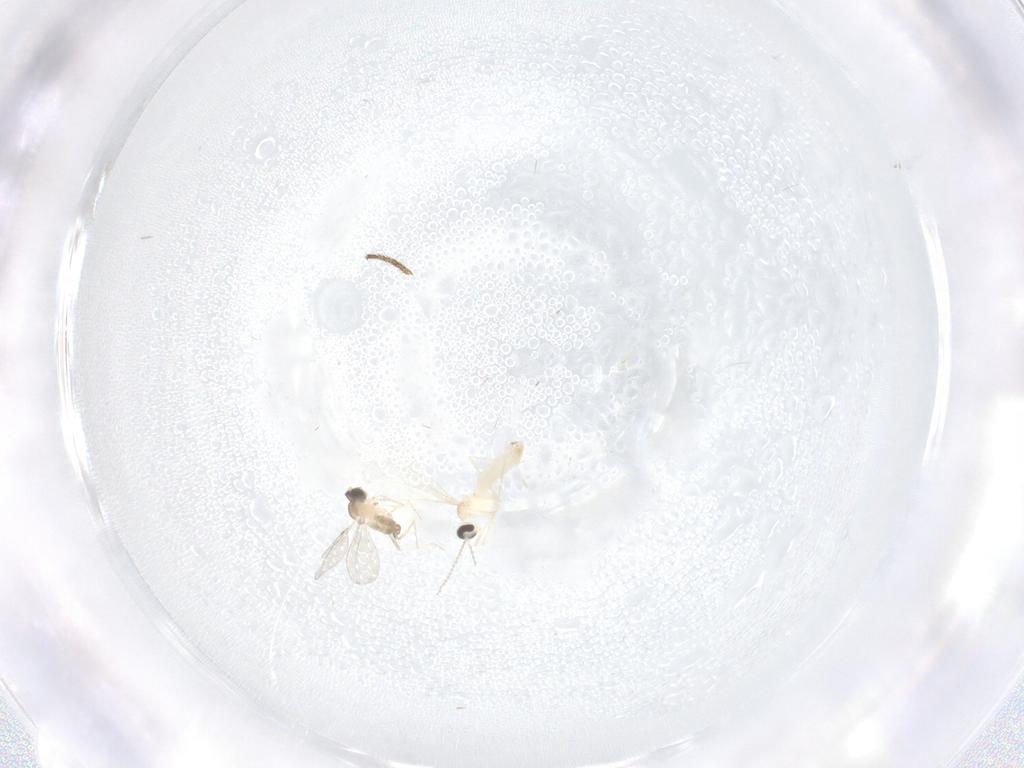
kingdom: Animalia
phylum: Arthropoda
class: Insecta
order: Diptera
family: Cecidomyiidae
